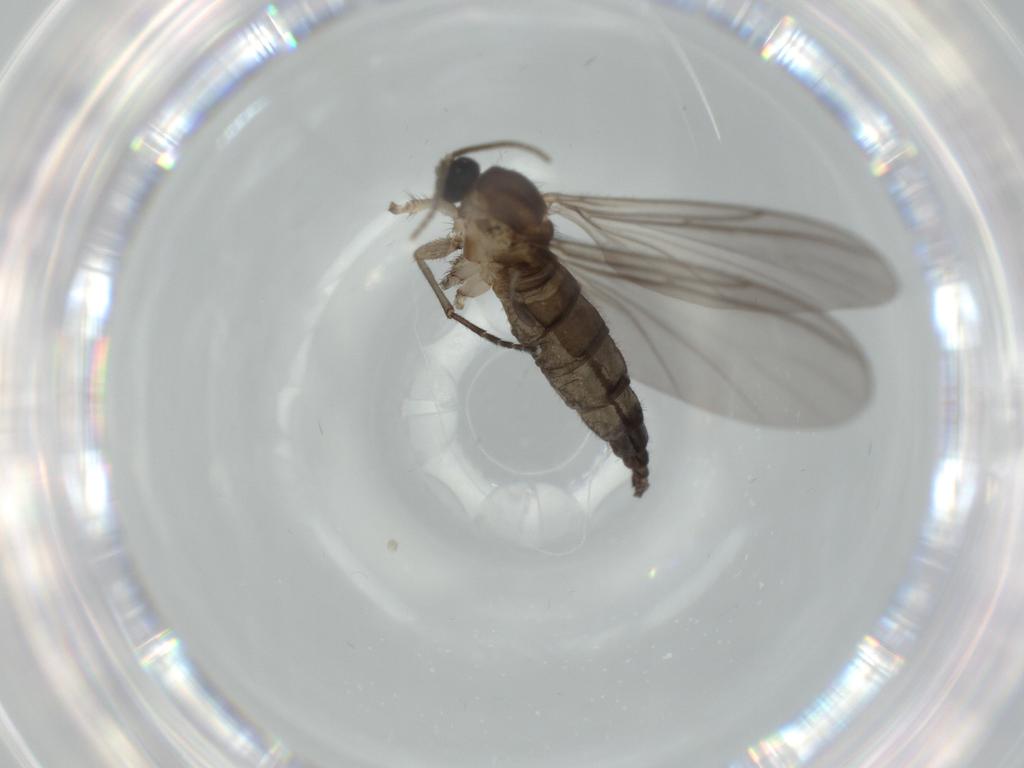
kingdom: Animalia
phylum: Arthropoda
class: Insecta
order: Diptera
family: Sciaridae
